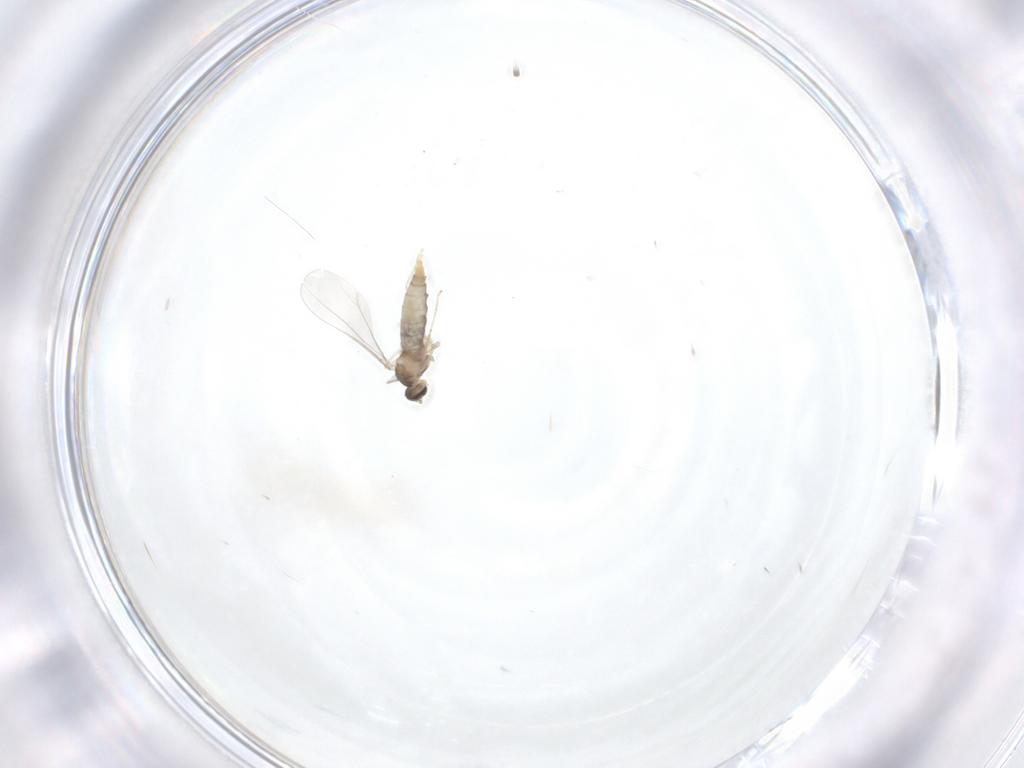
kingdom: Animalia
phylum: Arthropoda
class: Insecta
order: Diptera
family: Cecidomyiidae
